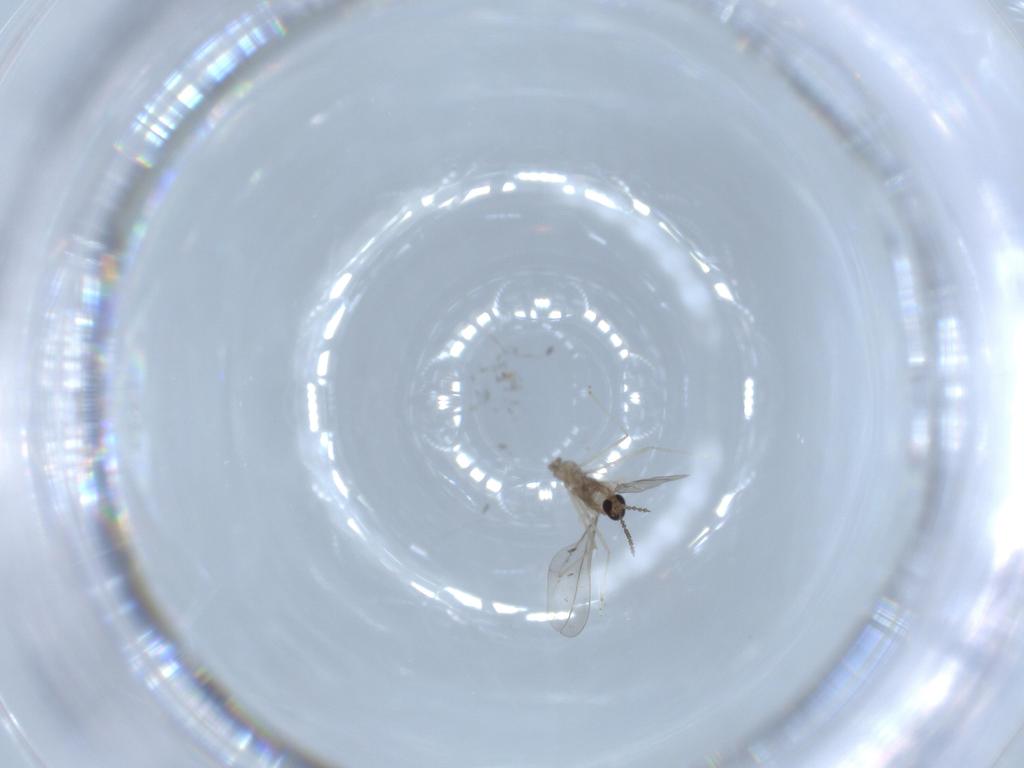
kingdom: Animalia
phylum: Arthropoda
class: Insecta
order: Diptera
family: Cecidomyiidae
